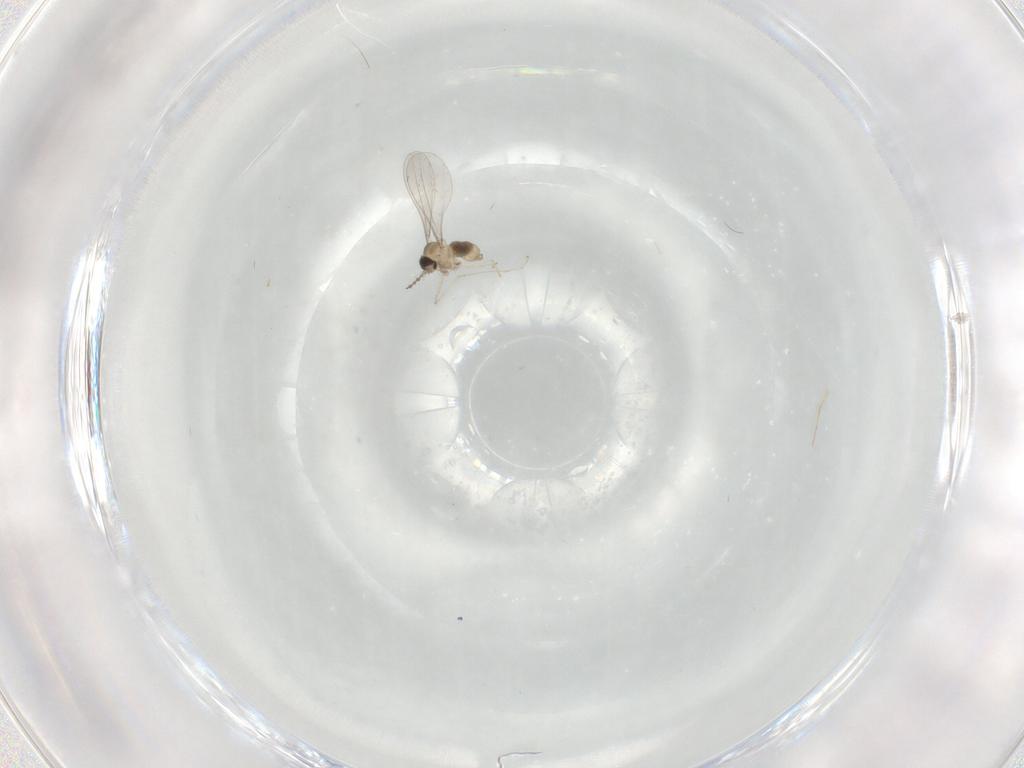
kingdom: Animalia
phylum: Arthropoda
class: Insecta
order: Diptera
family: Cecidomyiidae
